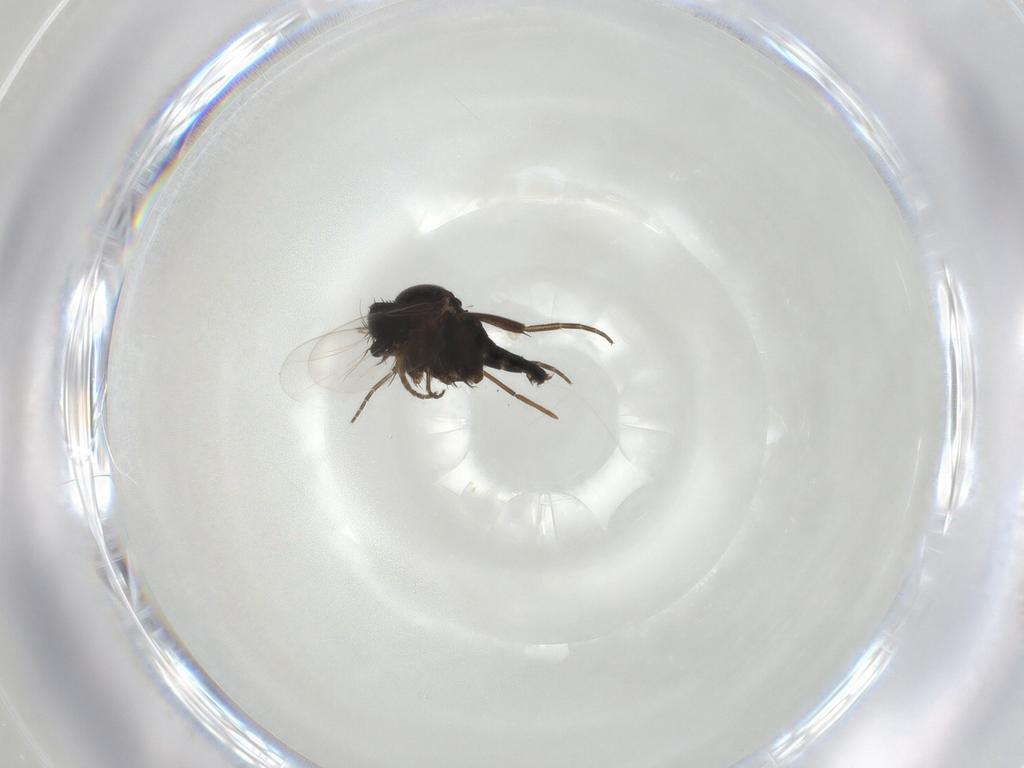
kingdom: Animalia
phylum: Arthropoda
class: Insecta
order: Diptera
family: Phoridae
